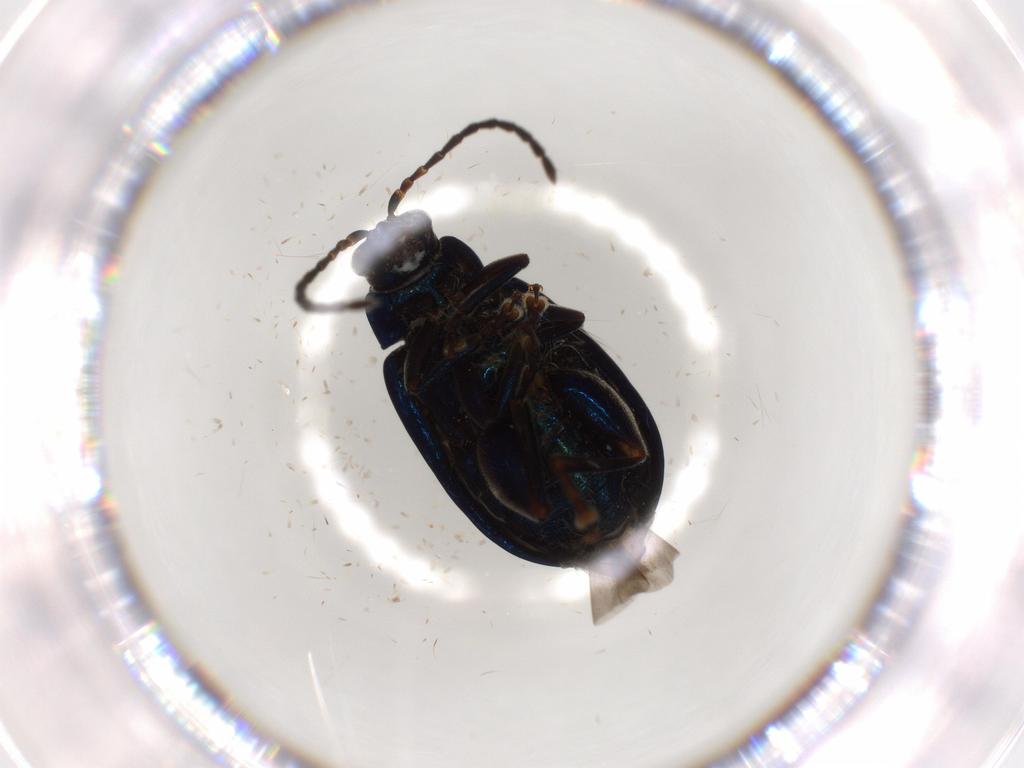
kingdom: Animalia
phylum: Arthropoda
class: Insecta
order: Coleoptera
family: Chrysomelidae
